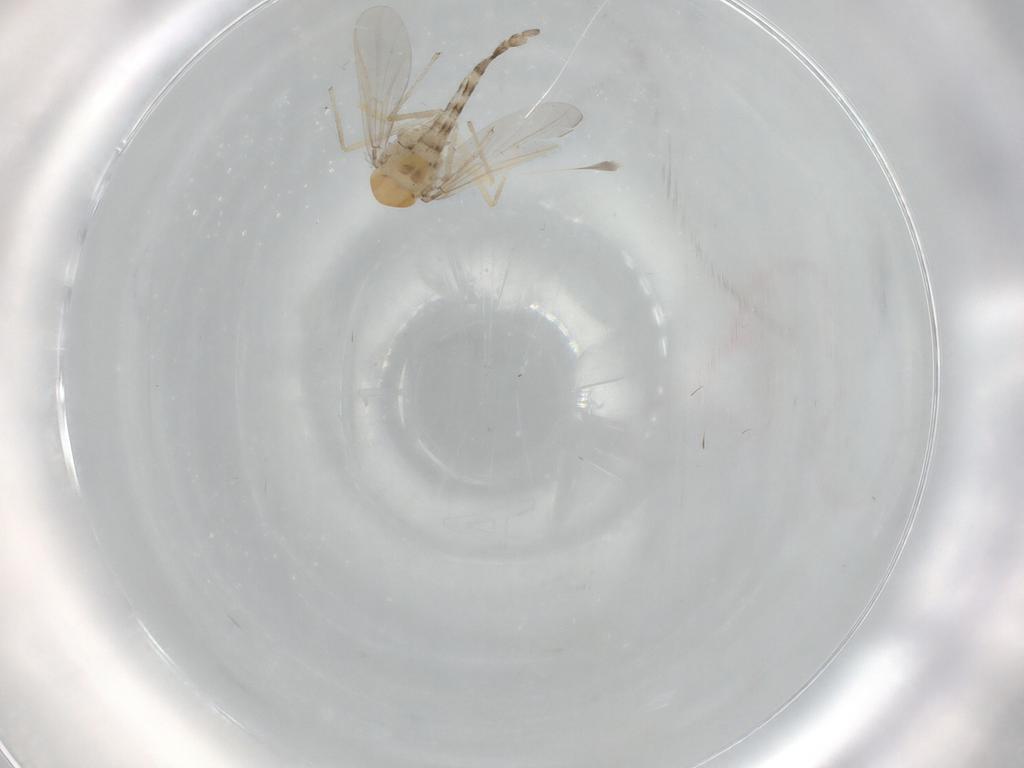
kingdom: Animalia
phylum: Arthropoda
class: Insecta
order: Diptera
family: Chironomidae
